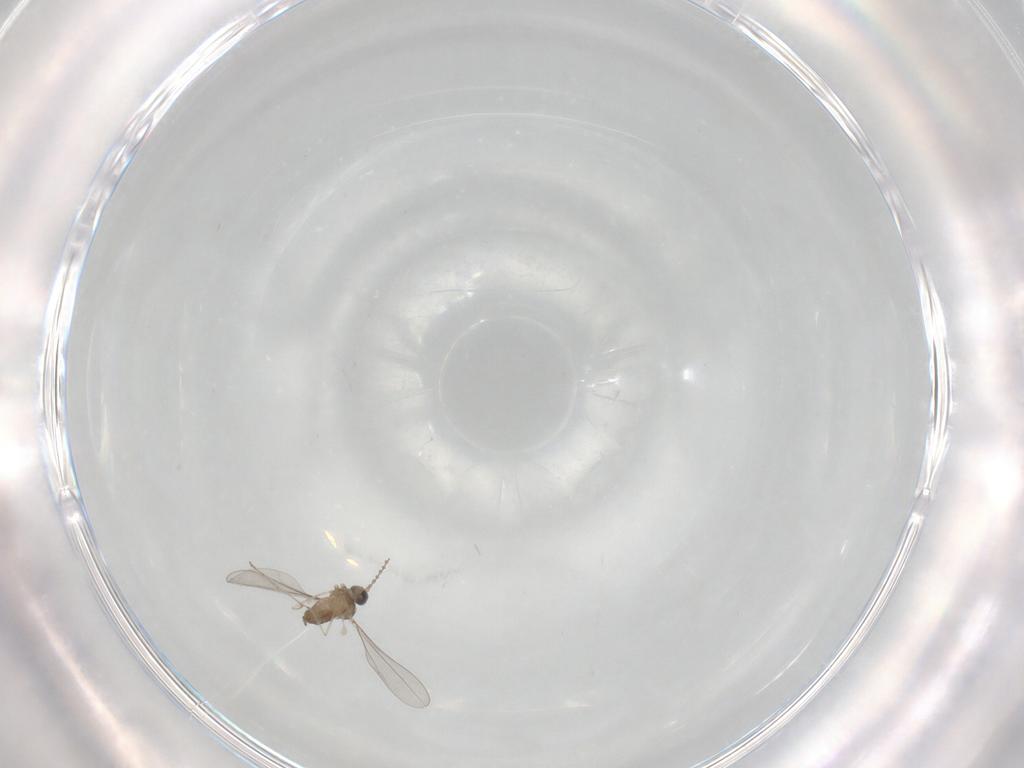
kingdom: Animalia
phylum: Arthropoda
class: Insecta
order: Diptera
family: Cecidomyiidae
